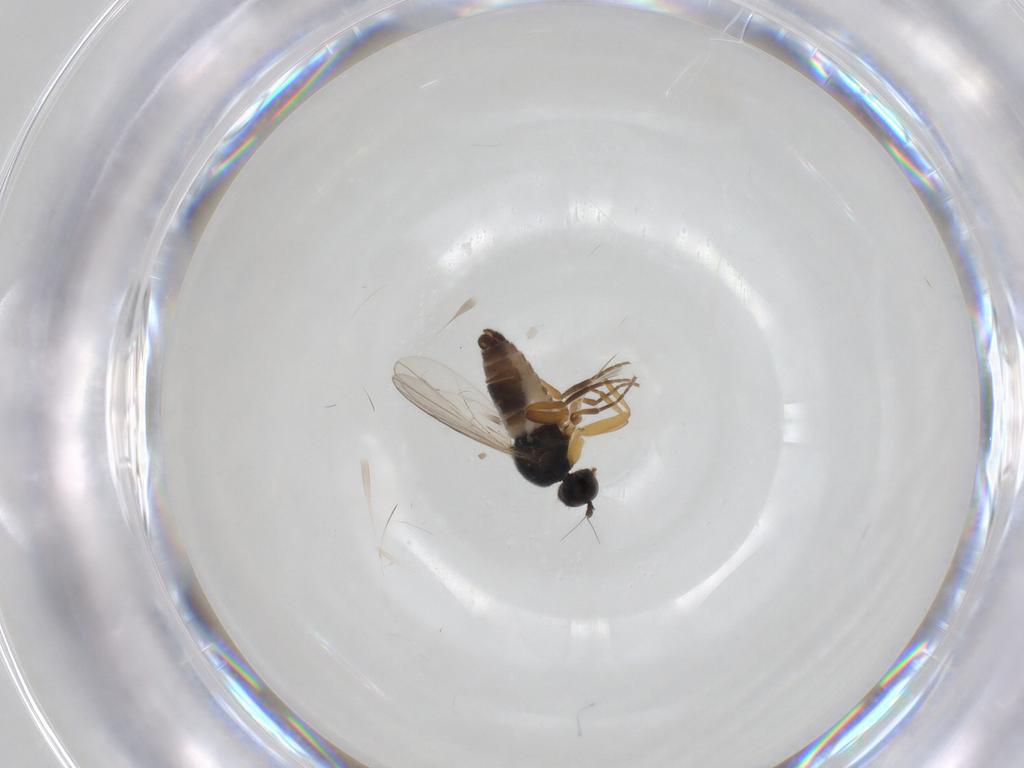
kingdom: Animalia
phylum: Arthropoda
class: Insecta
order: Diptera
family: Hybotidae
